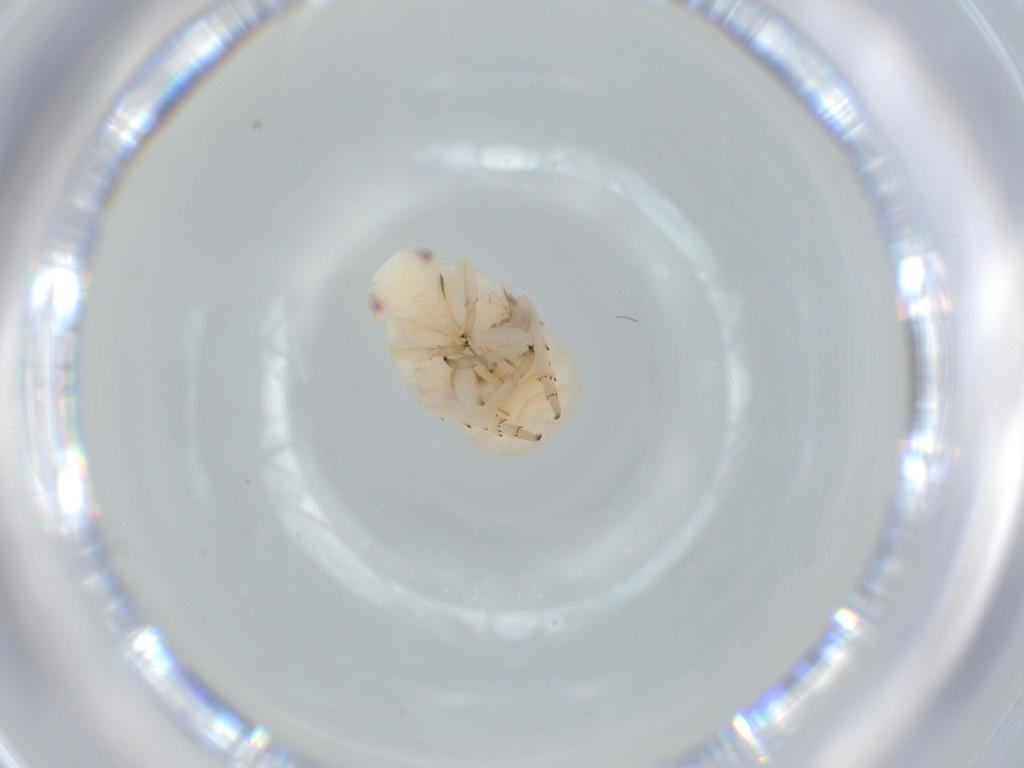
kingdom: Animalia
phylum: Arthropoda
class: Insecta
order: Hemiptera
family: Flatidae
